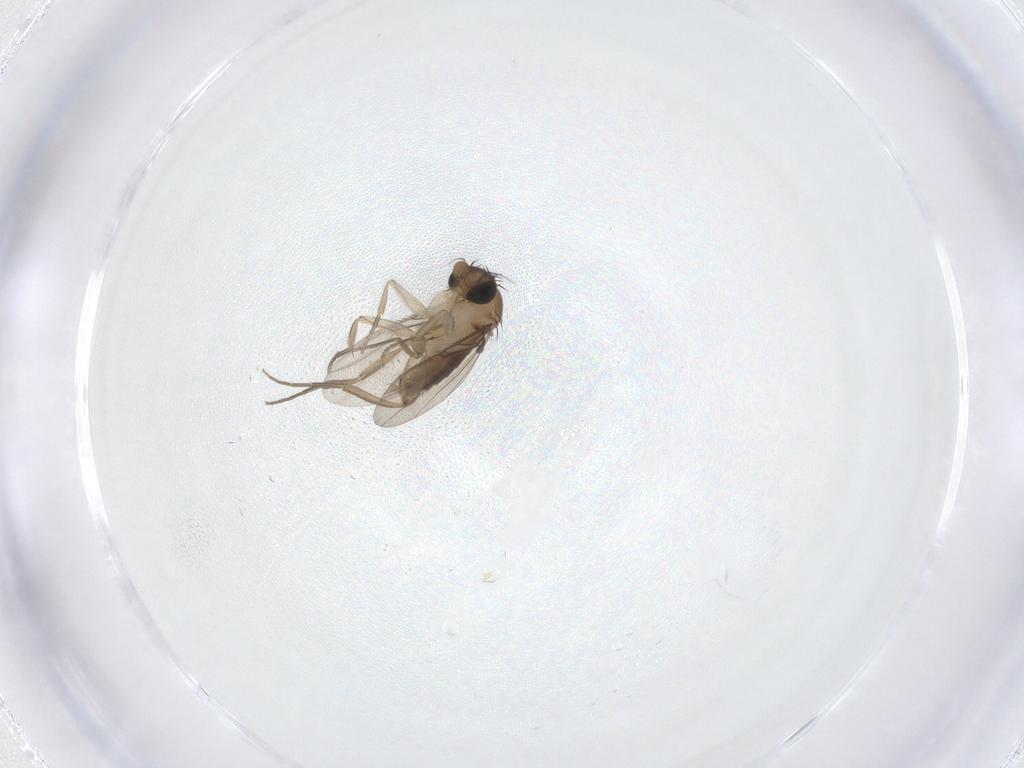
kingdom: Animalia
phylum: Arthropoda
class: Insecta
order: Diptera
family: Phoridae
